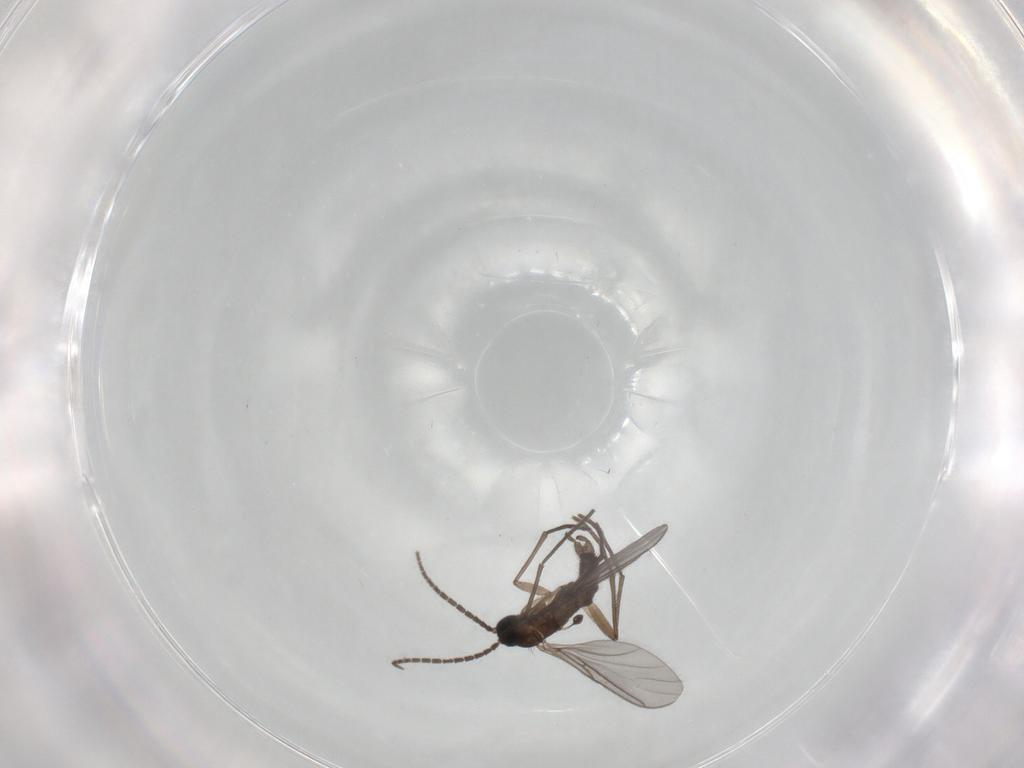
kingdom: Animalia
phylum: Arthropoda
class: Insecta
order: Diptera
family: Sciaridae
